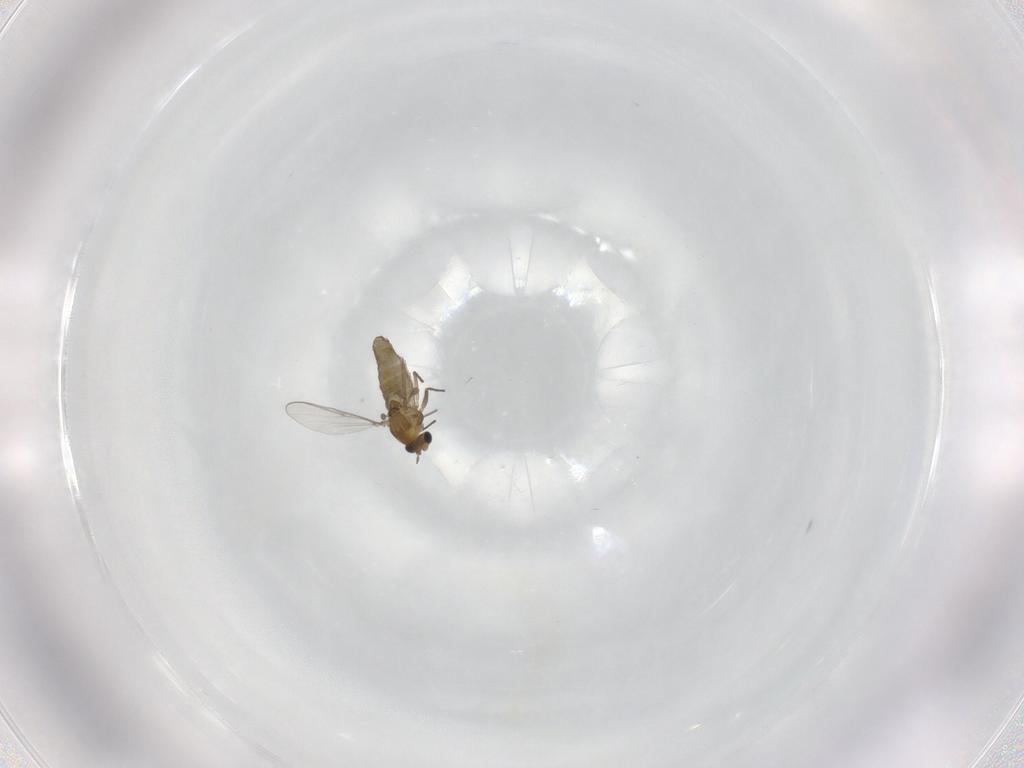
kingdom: Animalia
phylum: Arthropoda
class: Insecta
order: Diptera
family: Chironomidae
